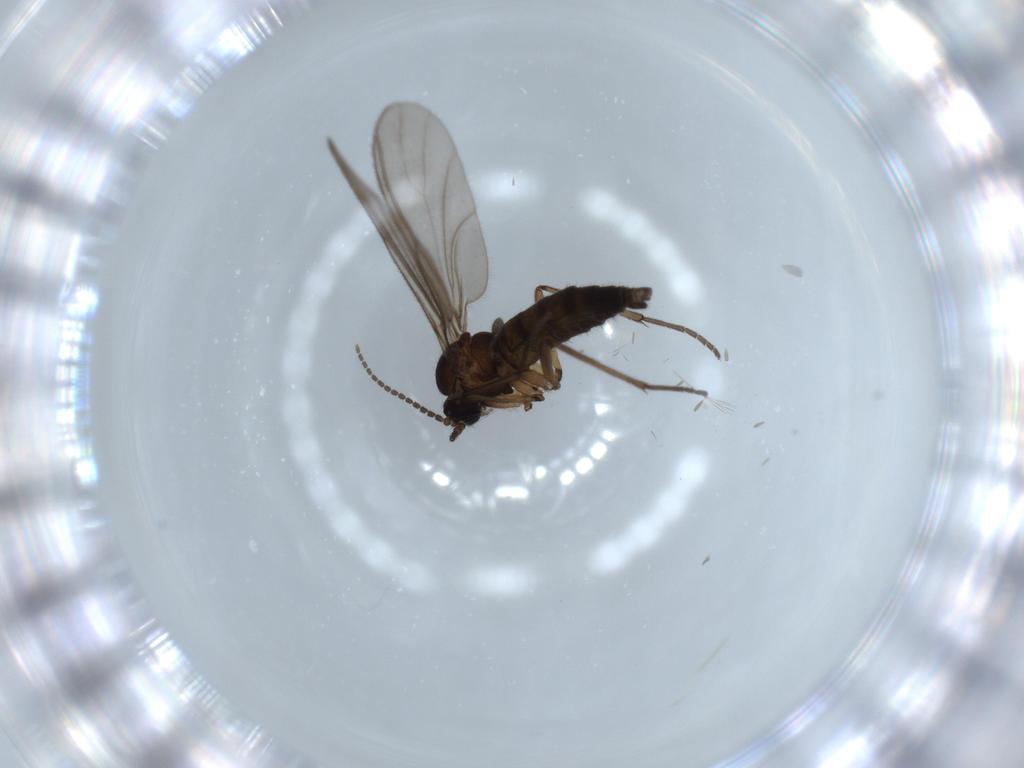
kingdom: Animalia
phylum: Arthropoda
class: Insecta
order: Diptera
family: Sciaridae
